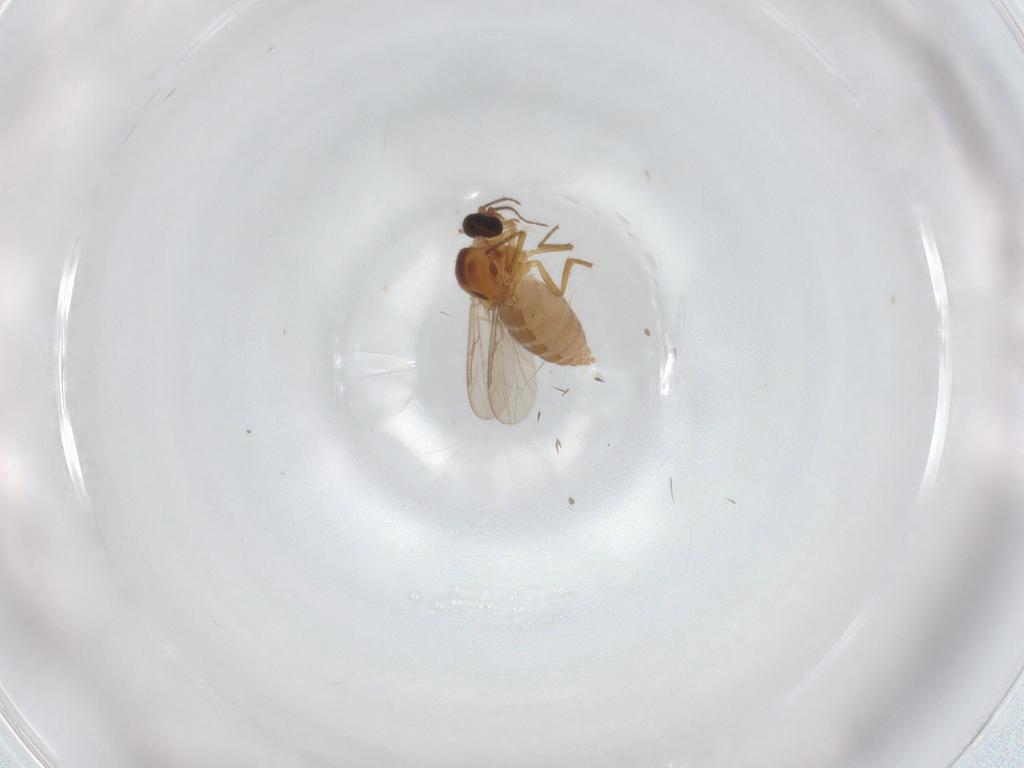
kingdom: Animalia
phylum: Arthropoda
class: Insecta
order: Diptera
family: Ceratopogonidae
